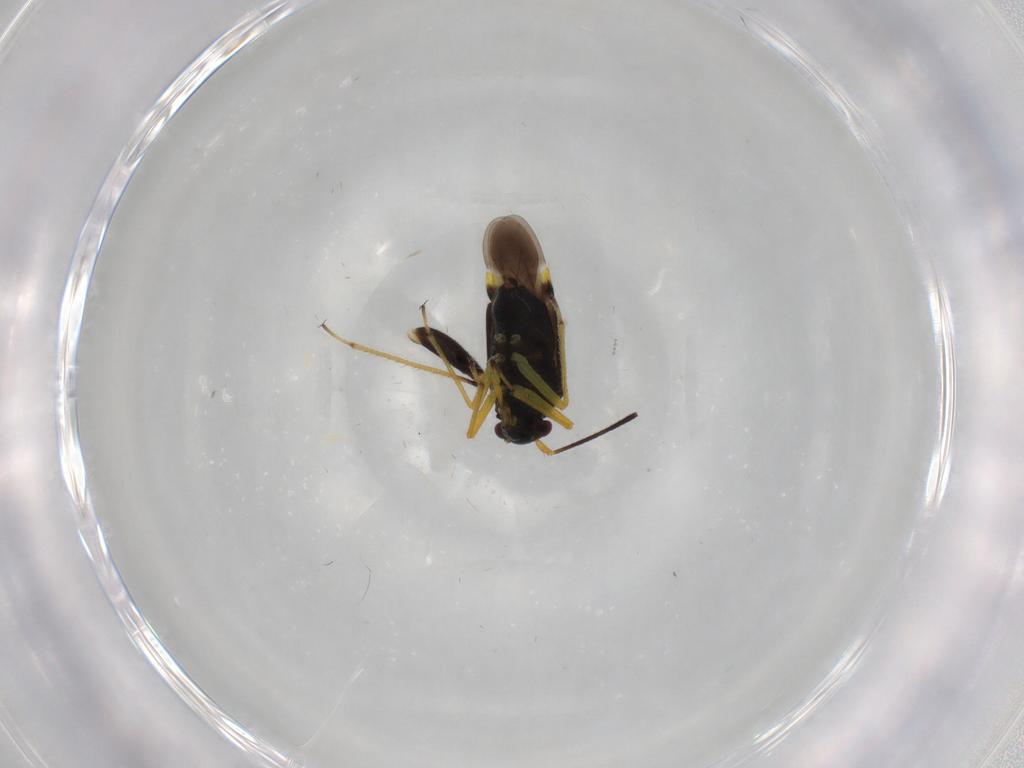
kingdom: Animalia
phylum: Arthropoda
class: Insecta
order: Hemiptera
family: Miridae
